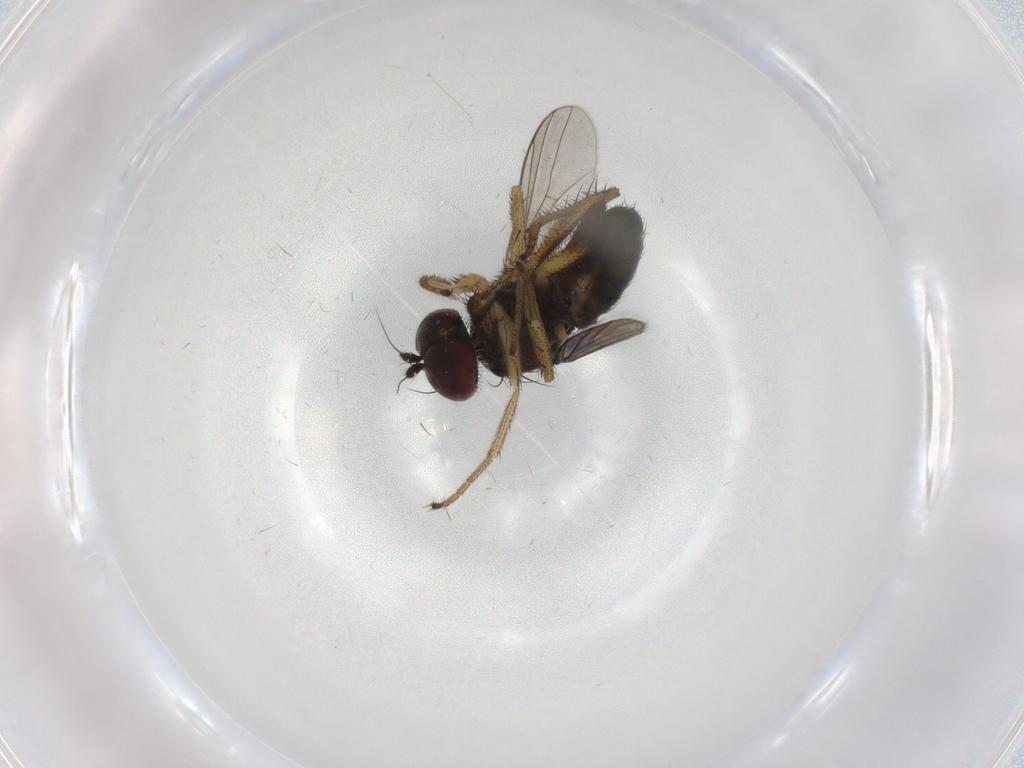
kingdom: Animalia
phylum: Arthropoda
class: Insecta
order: Diptera
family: Dolichopodidae
